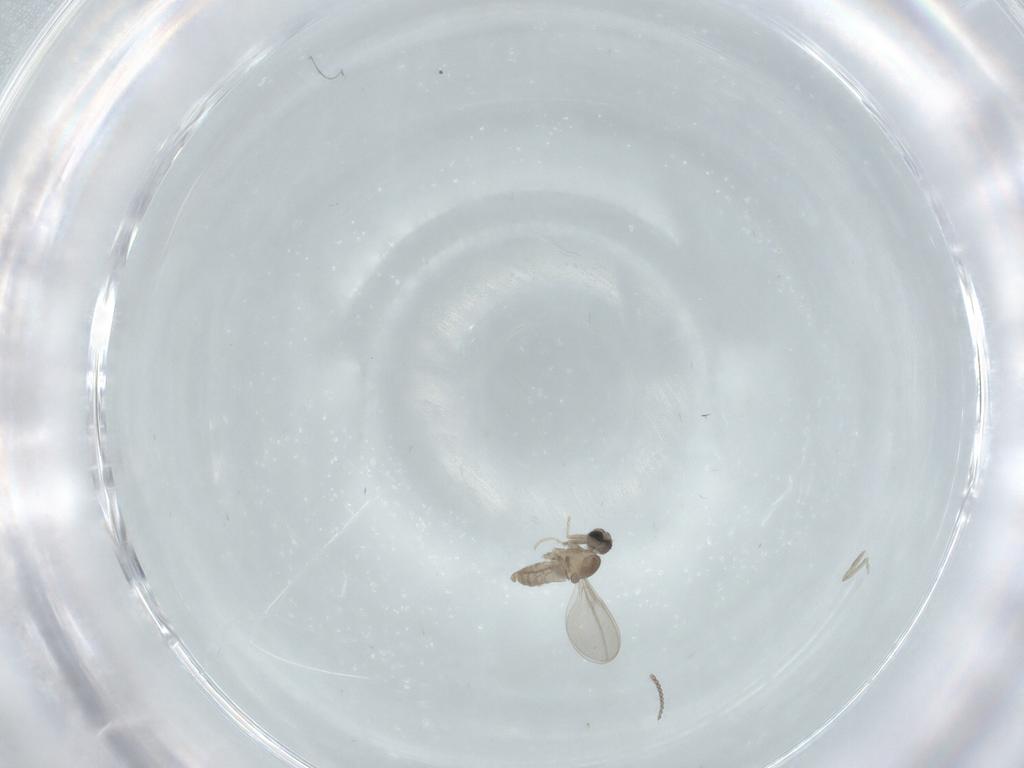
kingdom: Animalia
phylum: Arthropoda
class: Insecta
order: Diptera
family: Cecidomyiidae
